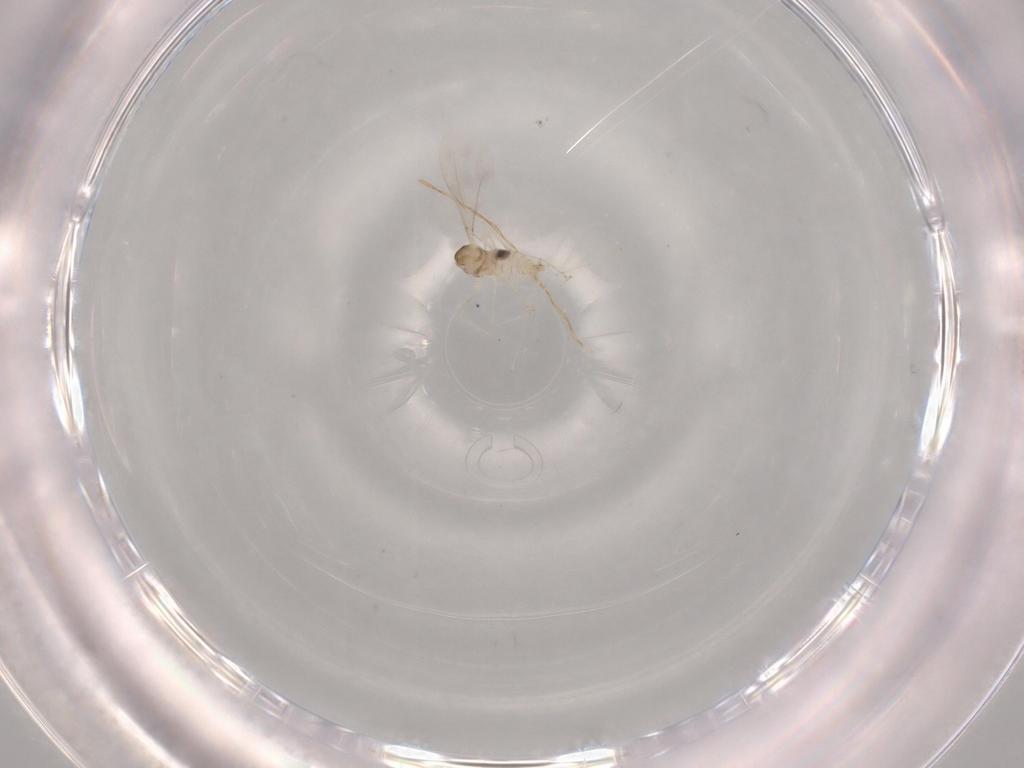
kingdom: Animalia
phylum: Arthropoda
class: Insecta
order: Diptera
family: Cecidomyiidae
